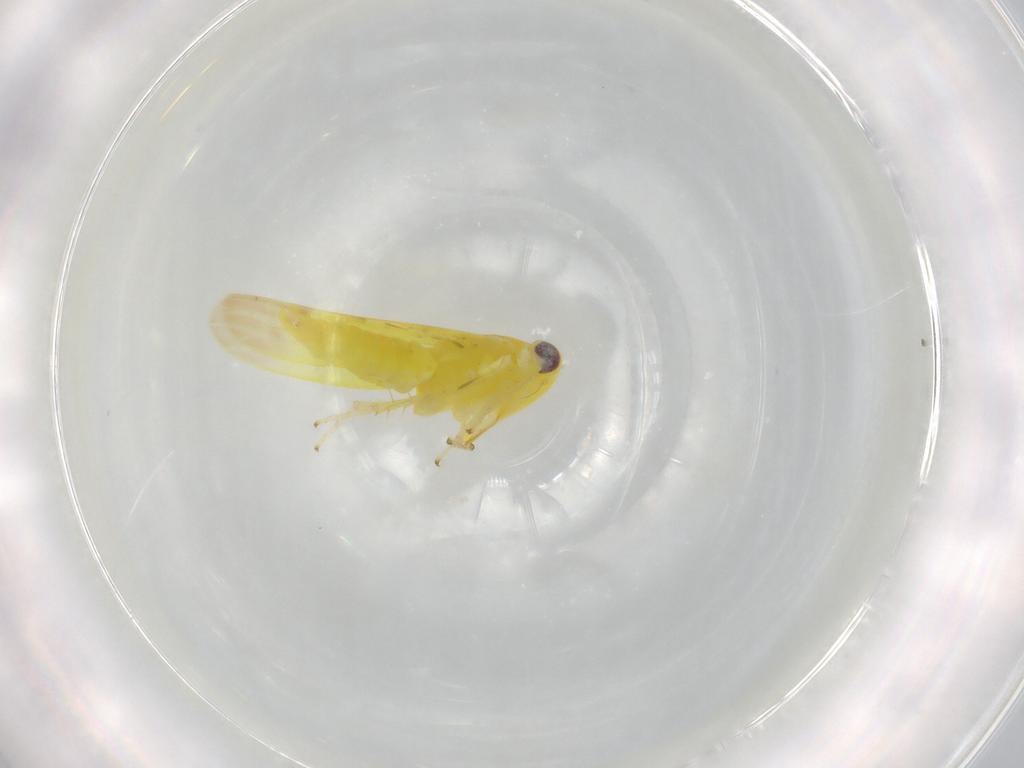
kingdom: Animalia
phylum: Arthropoda
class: Insecta
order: Hemiptera
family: Cicadellidae
